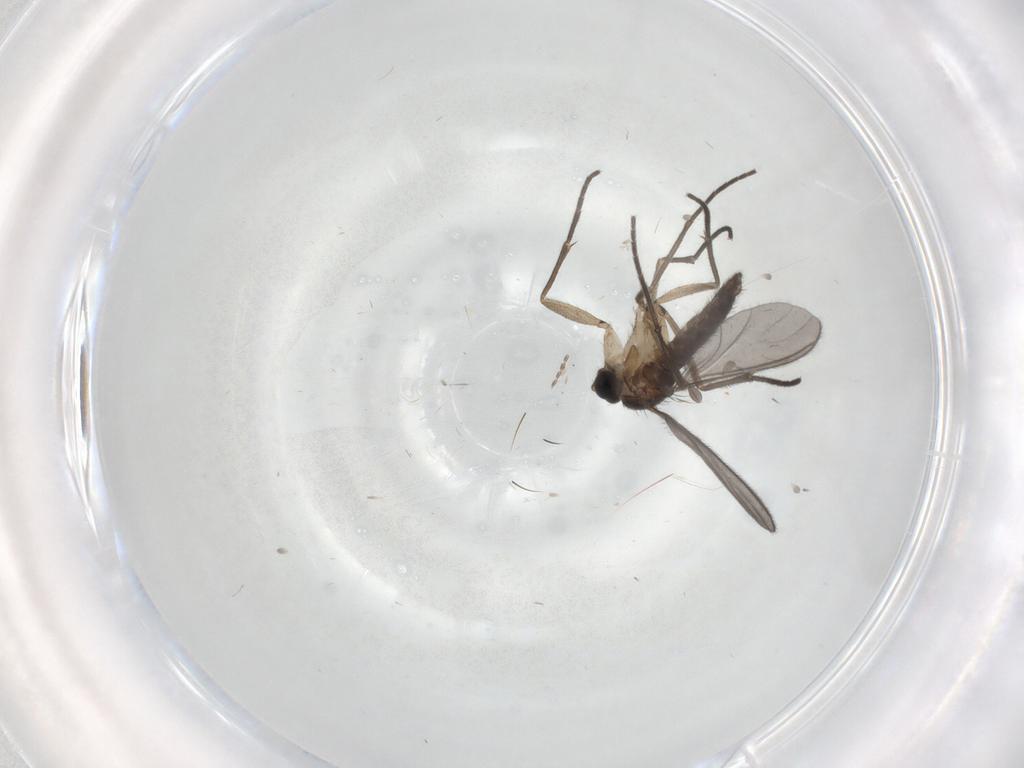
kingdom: Animalia
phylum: Arthropoda
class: Insecta
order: Diptera
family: Sciaridae
